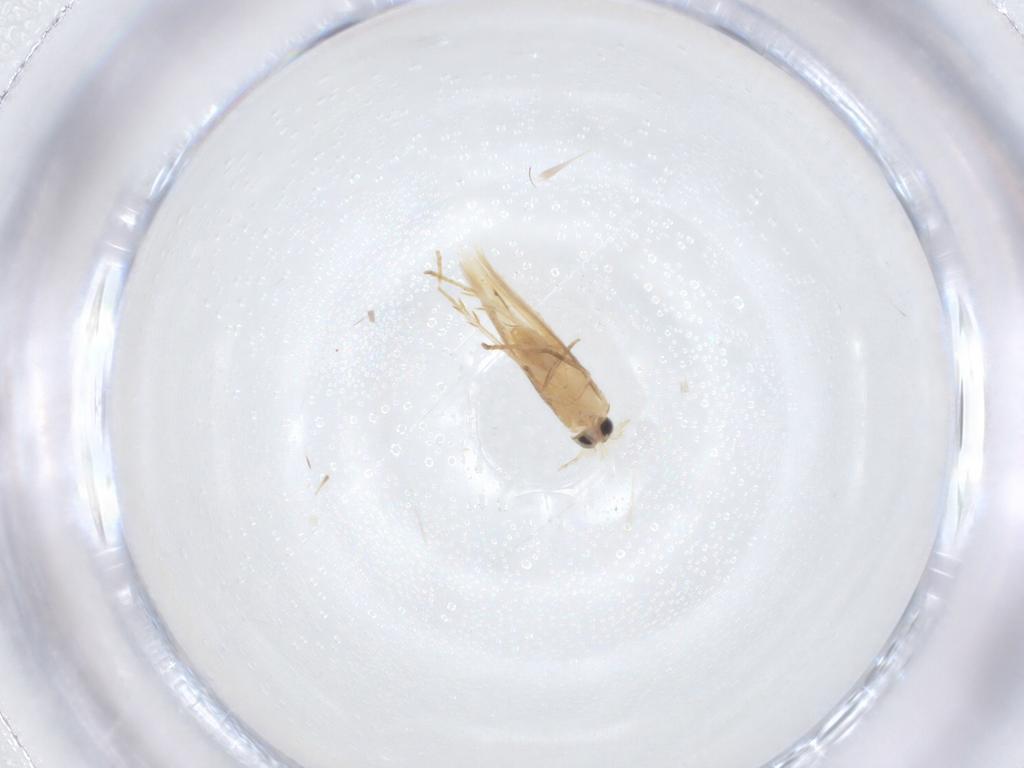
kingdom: Animalia
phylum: Arthropoda
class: Insecta
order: Lepidoptera
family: Nepticulidae
